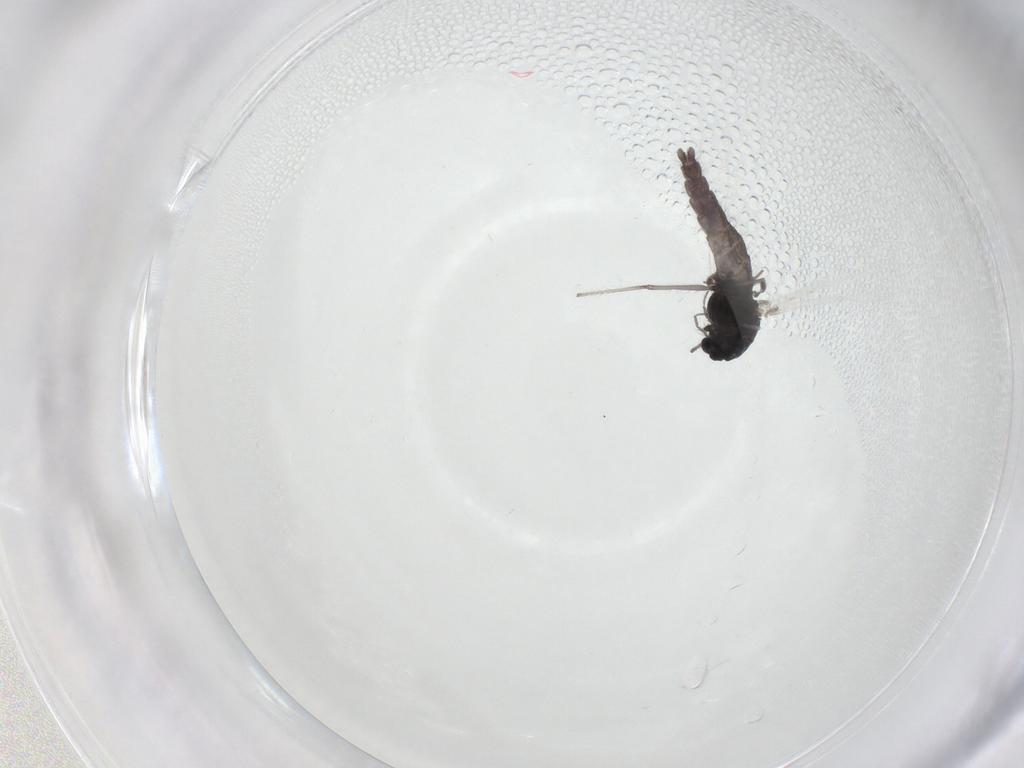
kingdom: Animalia
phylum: Arthropoda
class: Insecta
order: Diptera
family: Chironomidae
